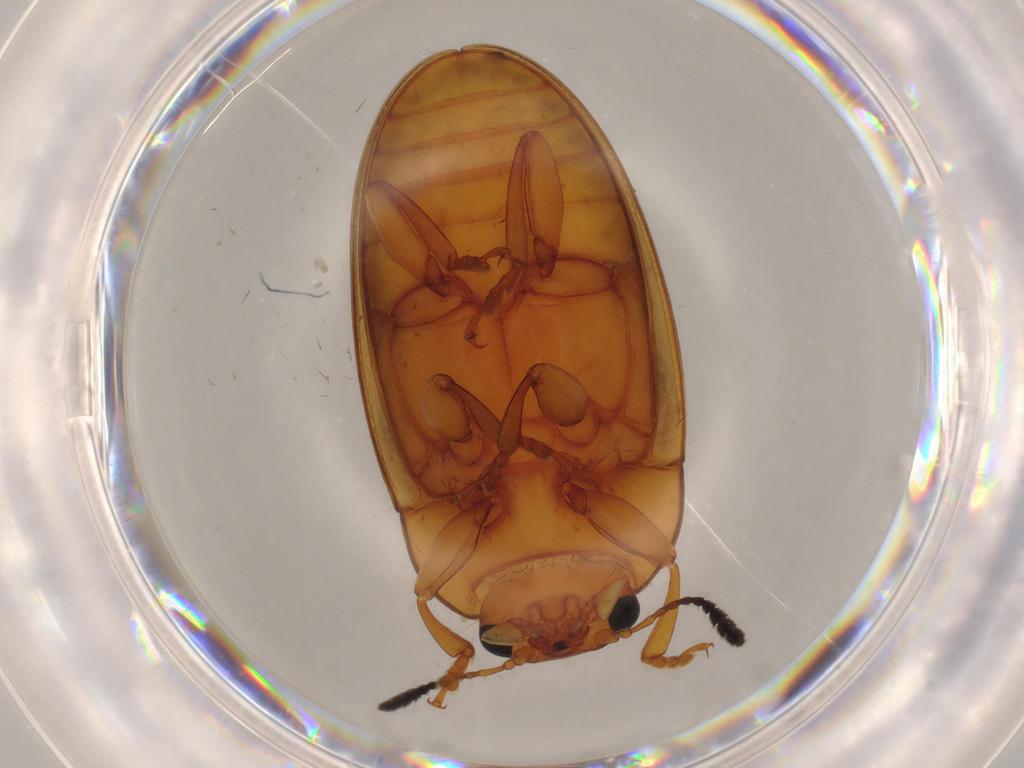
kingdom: Animalia
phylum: Arthropoda
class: Insecta
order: Coleoptera
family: Erotylidae
